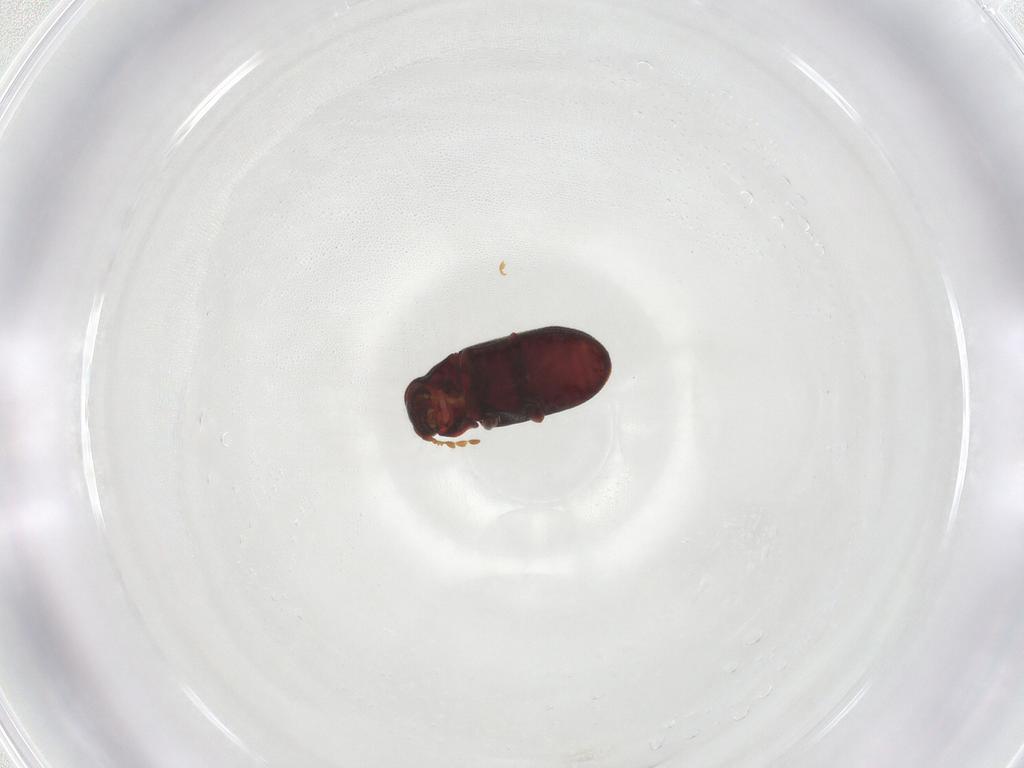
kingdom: Animalia
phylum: Arthropoda
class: Insecta
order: Coleoptera
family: Ptinidae
